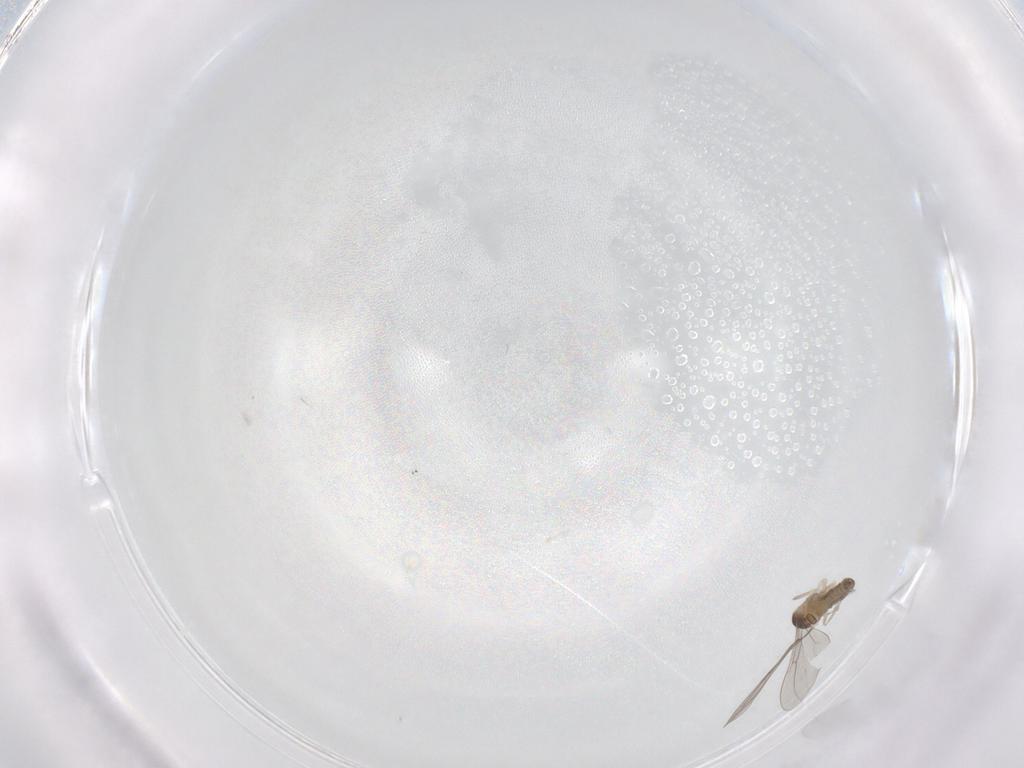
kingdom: Animalia
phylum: Arthropoda
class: Insecta
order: Diptera
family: Cecidomyiidae
